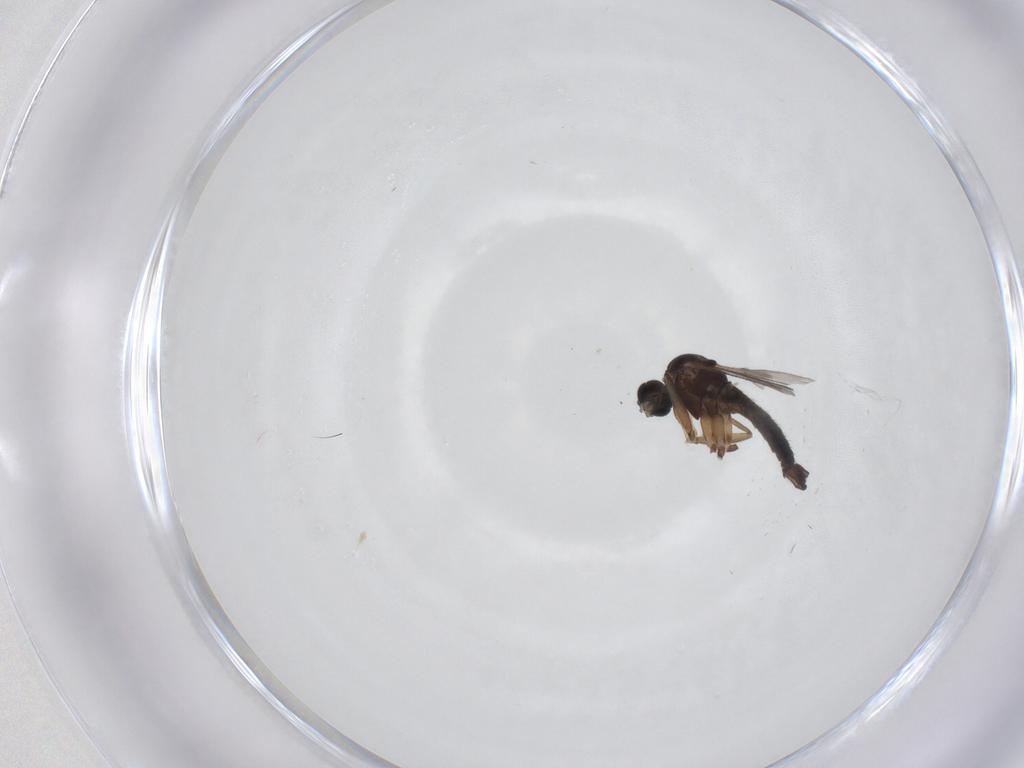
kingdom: Animalia
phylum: Arthropoda
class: Insecta
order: Diptera
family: Sciaridae
